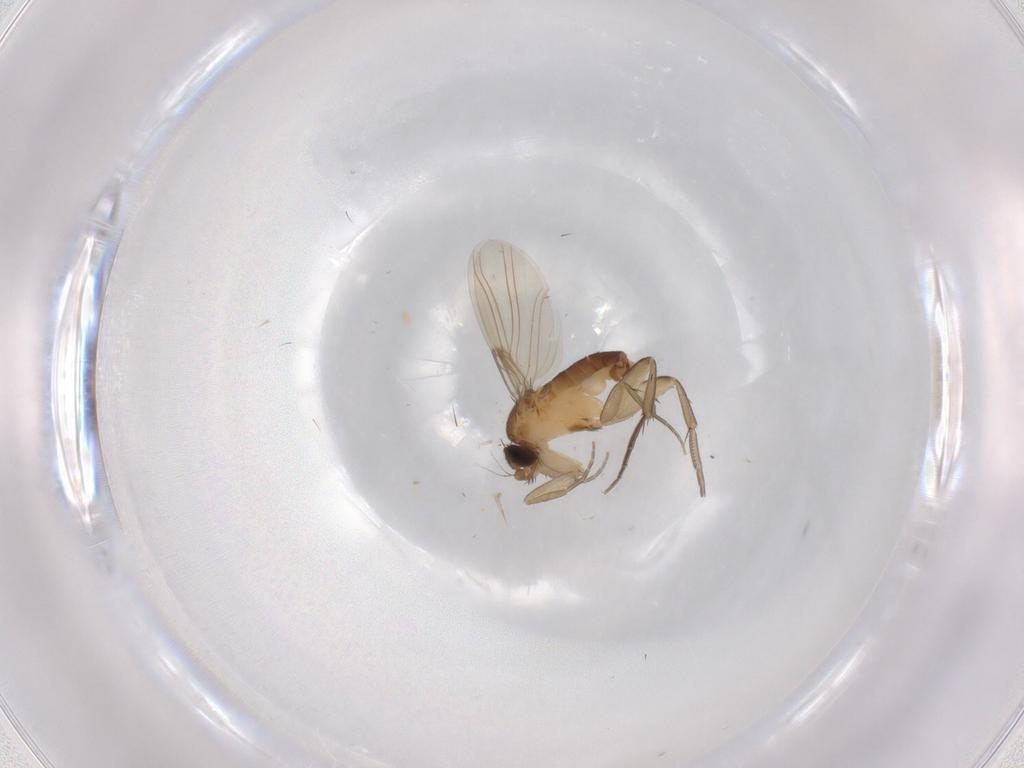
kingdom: Animalia
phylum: Arthropoda
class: Insecta
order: Diptera
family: Phoridae
